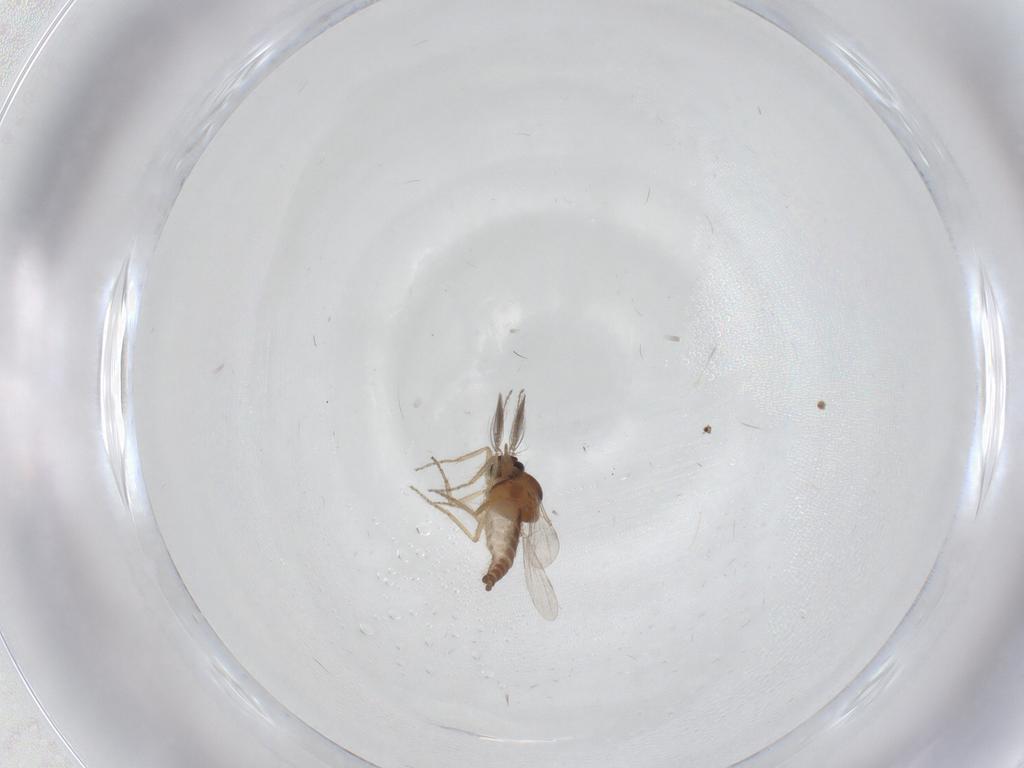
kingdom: Animalia
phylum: Arthropoda
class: Insecta
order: Diptera
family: Ceratopogonidae
